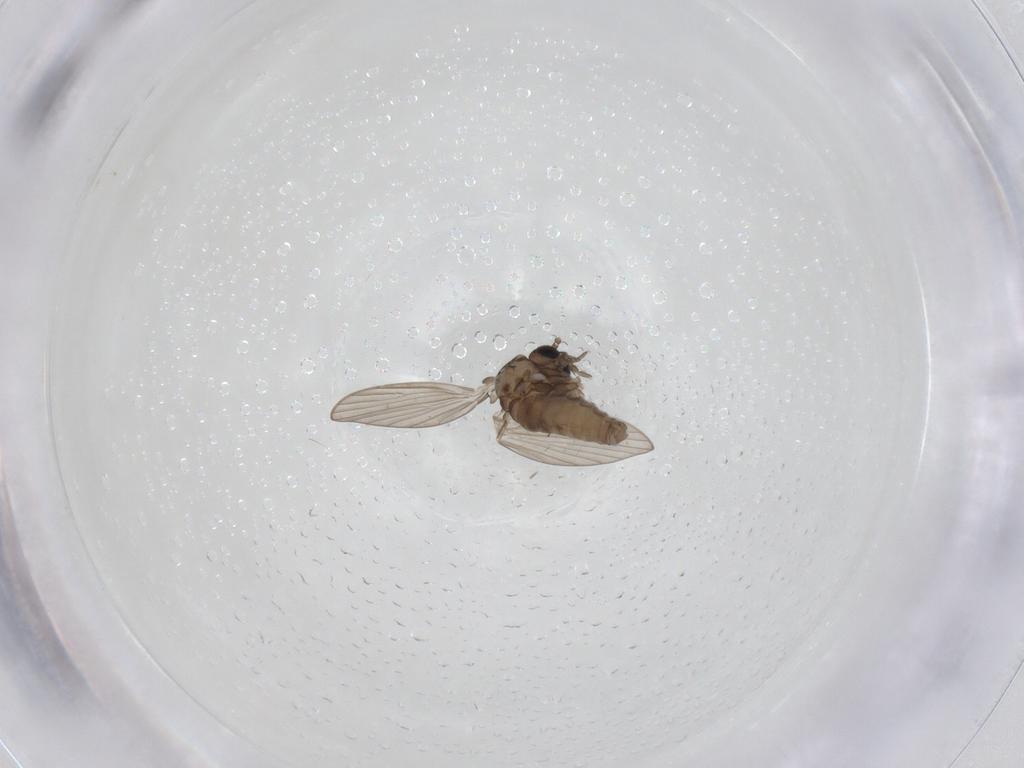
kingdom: Animalia
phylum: Arthropoda
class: Insecta
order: Diptera
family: Psychodidae
